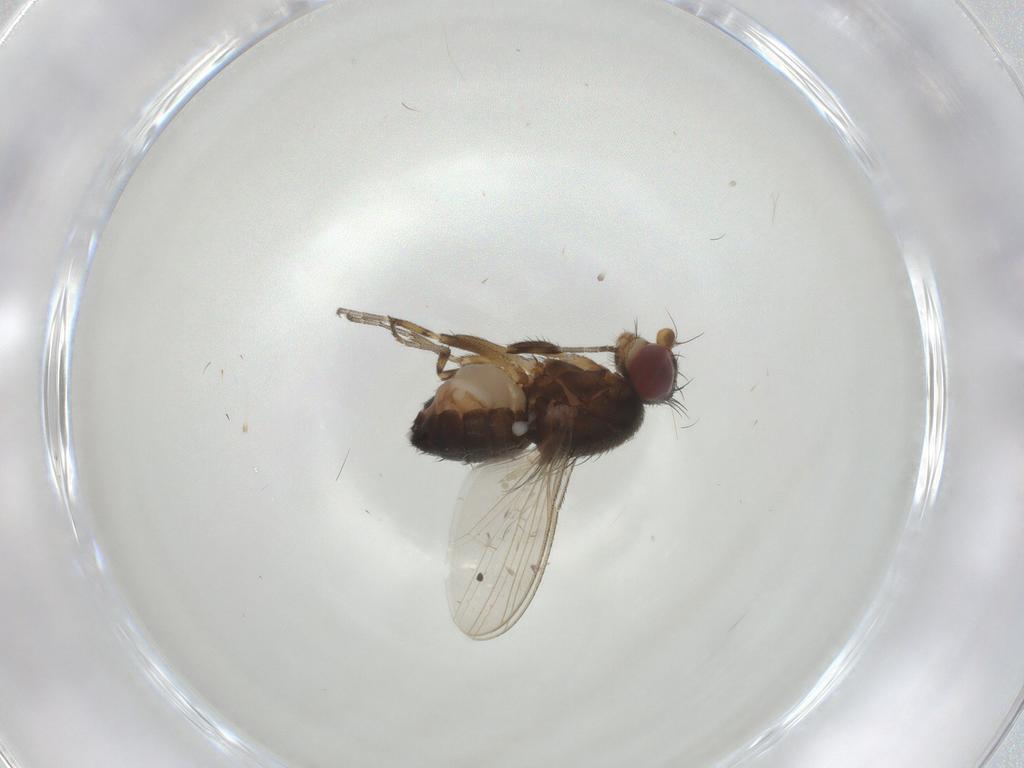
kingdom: Animalia
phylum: Arthropoda
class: Insecta
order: Diptera
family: Heleomyzidae
